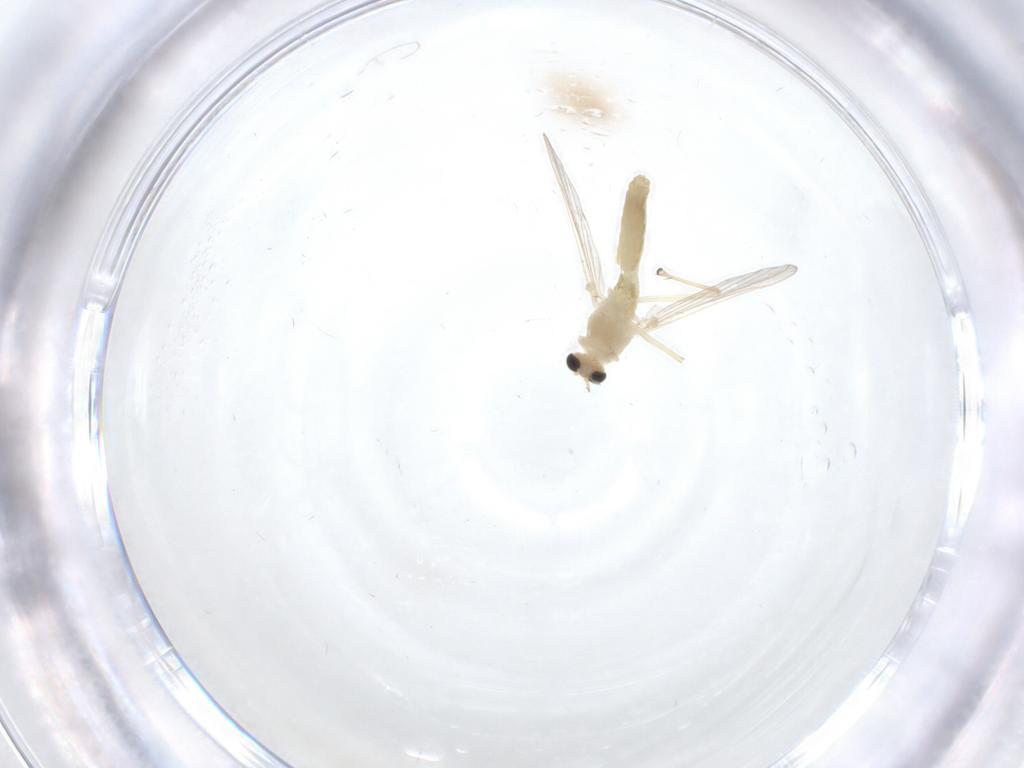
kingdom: Animalia
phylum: Arthropoda
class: Insecta
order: Diptera
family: Chironomidae
